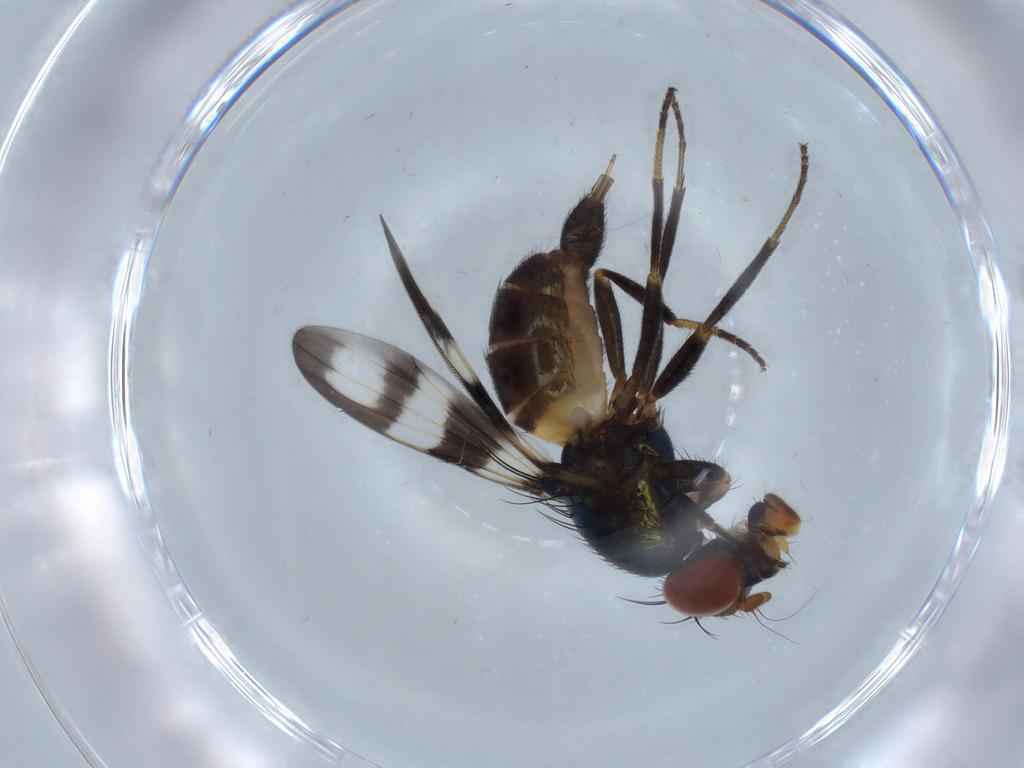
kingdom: Animalia
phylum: Arthropoda
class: Insecta
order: Diptera
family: Sciaridae
